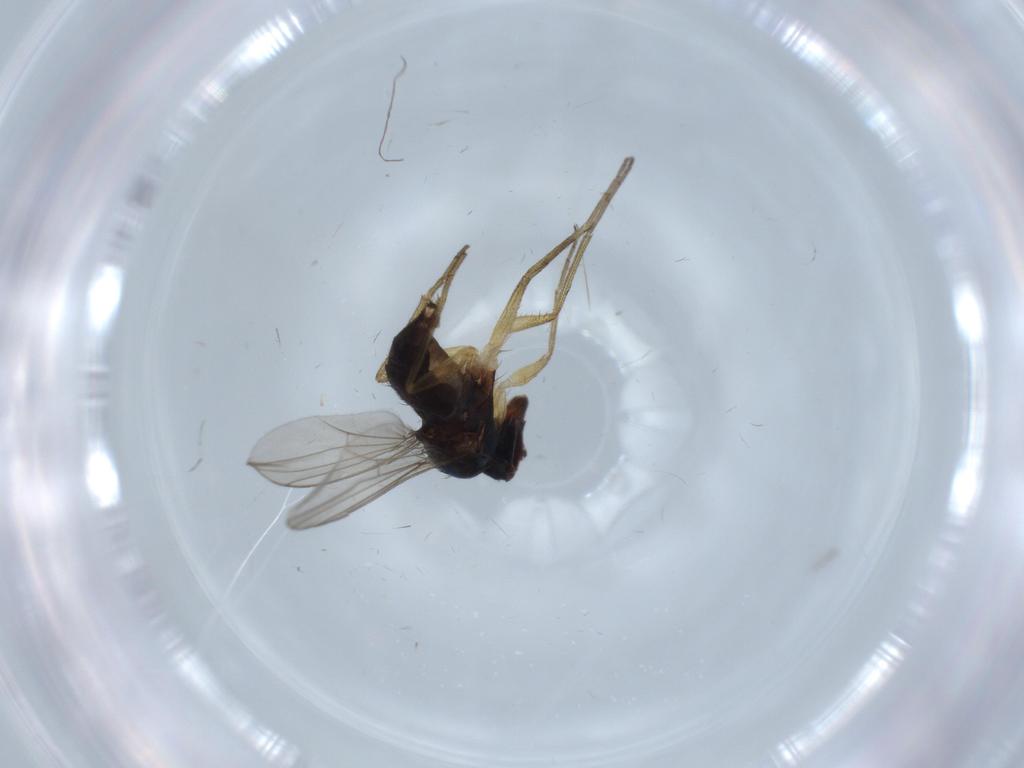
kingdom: Animalia
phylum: Arthropoda
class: Insecta
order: Diptera
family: Dolichopodidae
